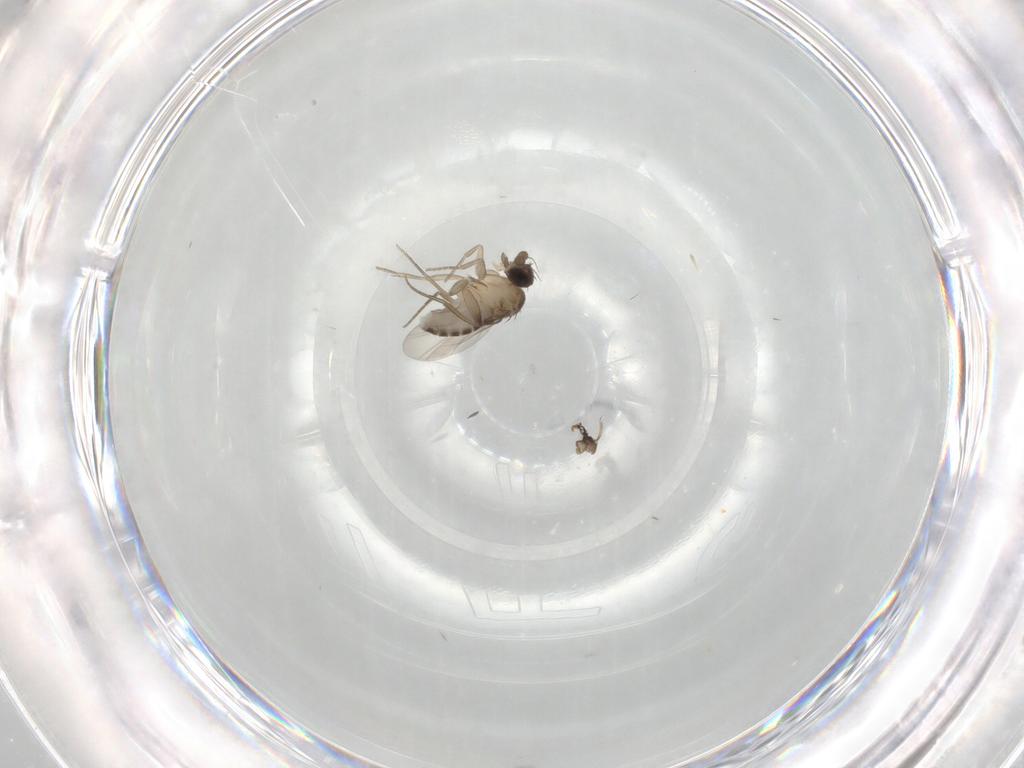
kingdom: Animalia
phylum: Arthropoda
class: Insecta
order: Diptera
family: Phoridae
